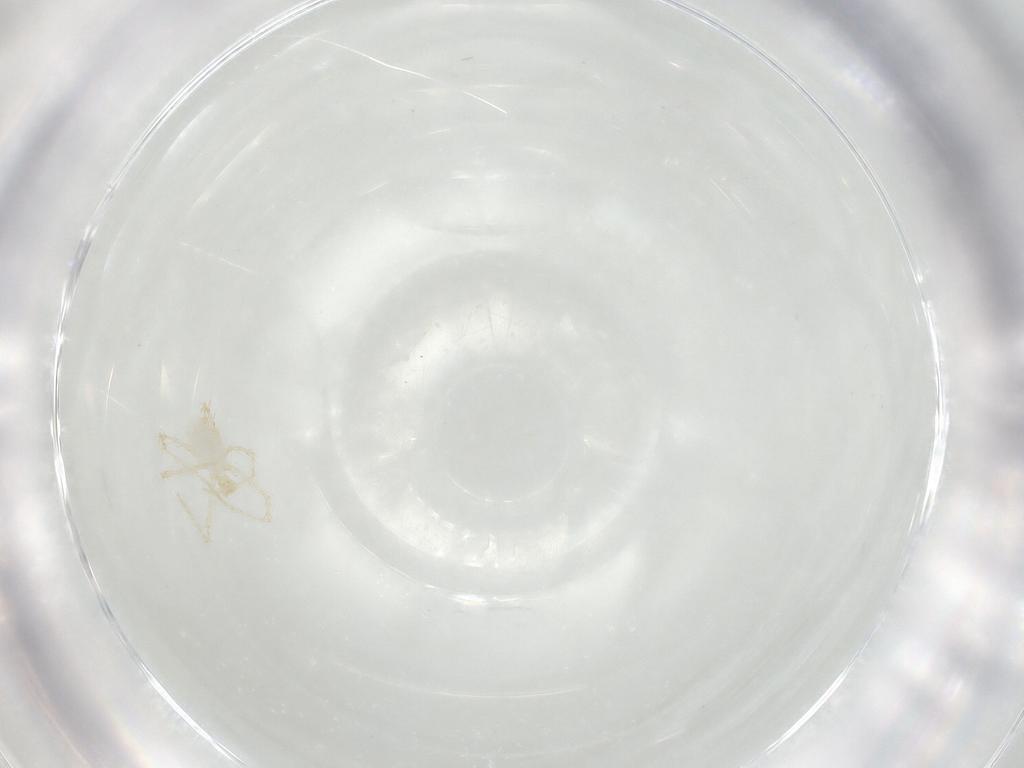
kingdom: Animalia
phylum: Arthropoda
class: Arachnida
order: Trombidiformes
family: Erythraeidae
